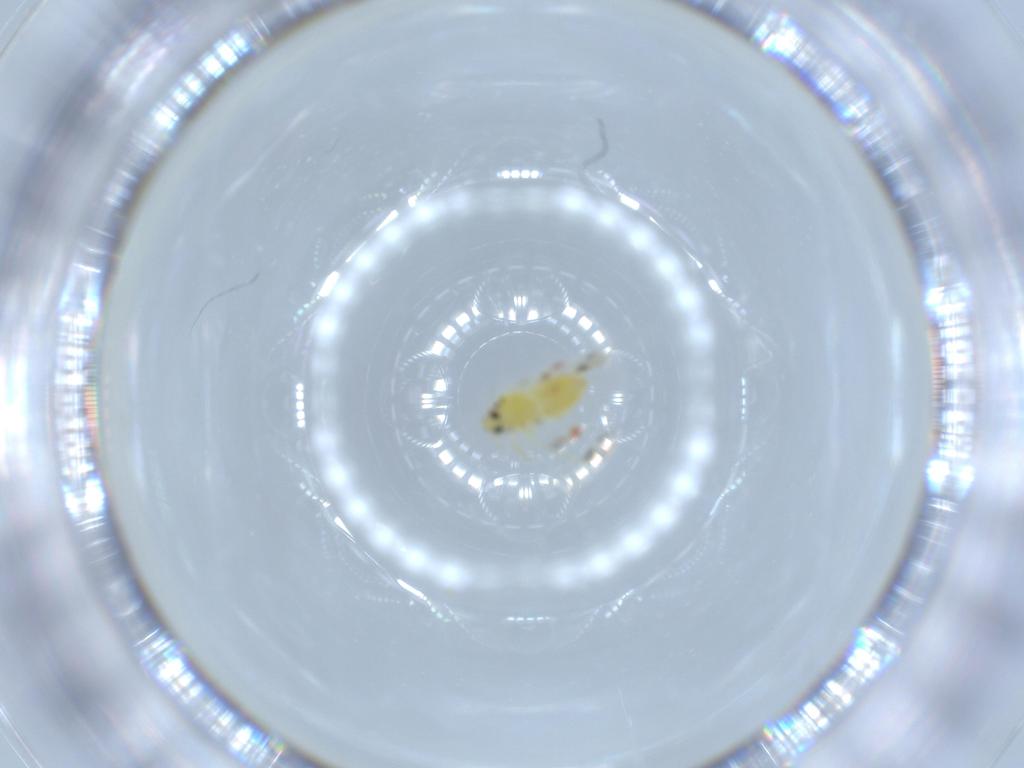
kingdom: Animalia
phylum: Arthropoda
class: Insecta
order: Hemiptera
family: Aleyrodidae
